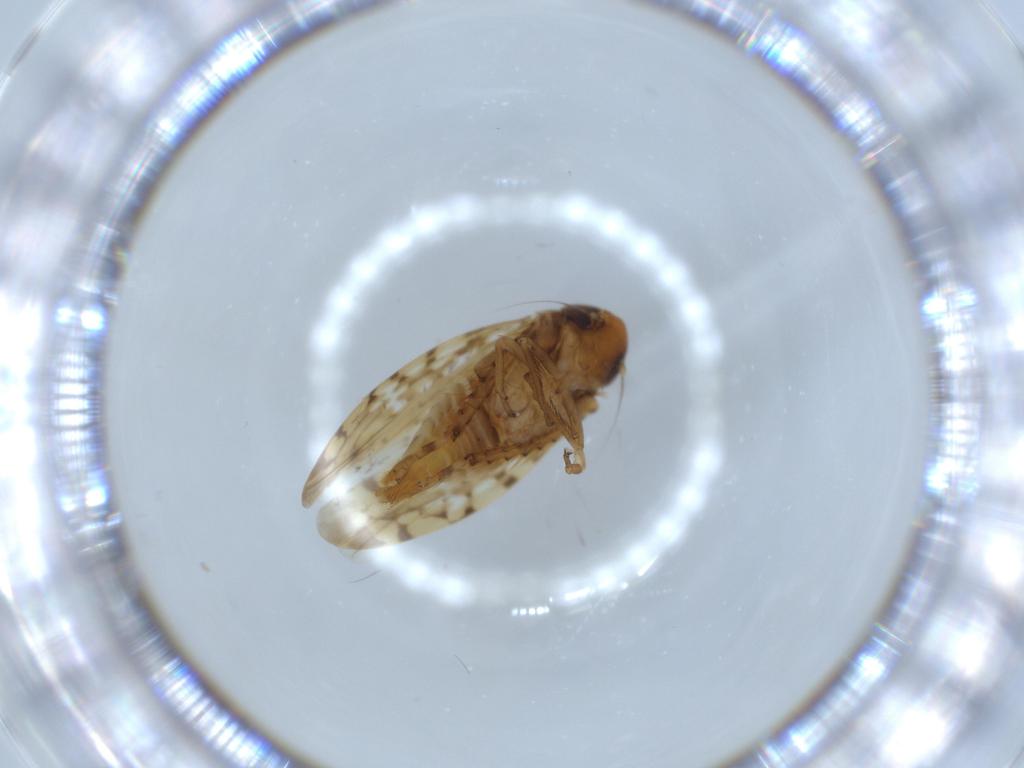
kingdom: Animalia
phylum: Arthropoda
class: Insecta
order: Hemiptera
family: Cicadellidae
